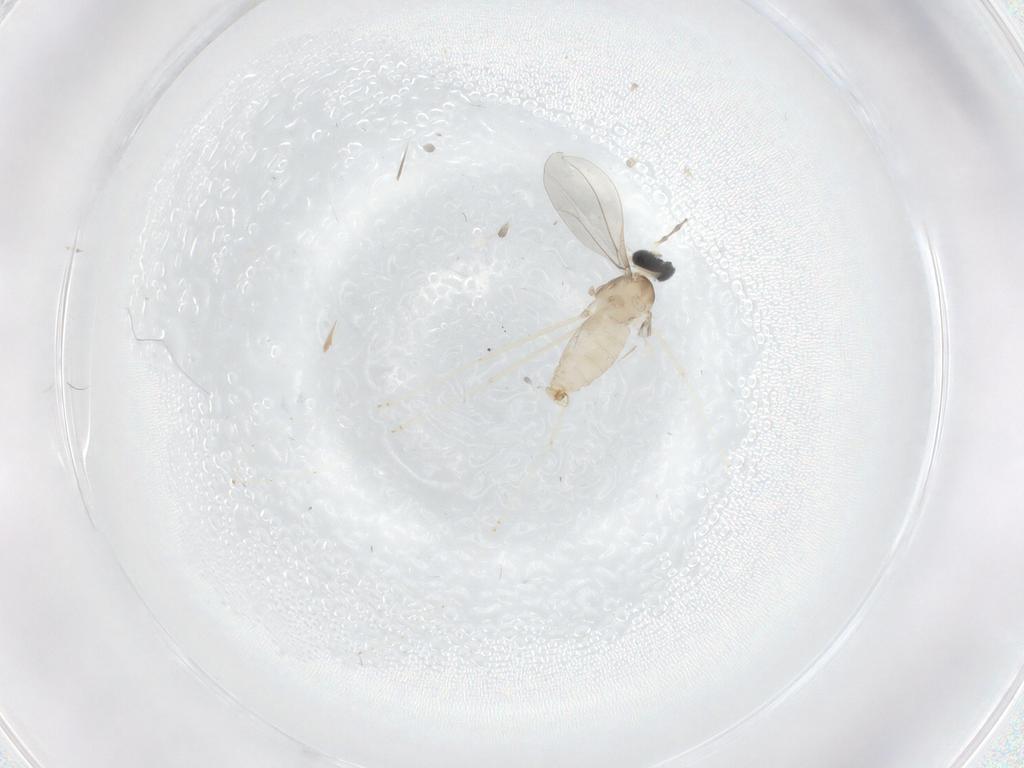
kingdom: Animalia
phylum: Arthropoda
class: Insecta
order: Diptera
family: Cecidomyiidae
